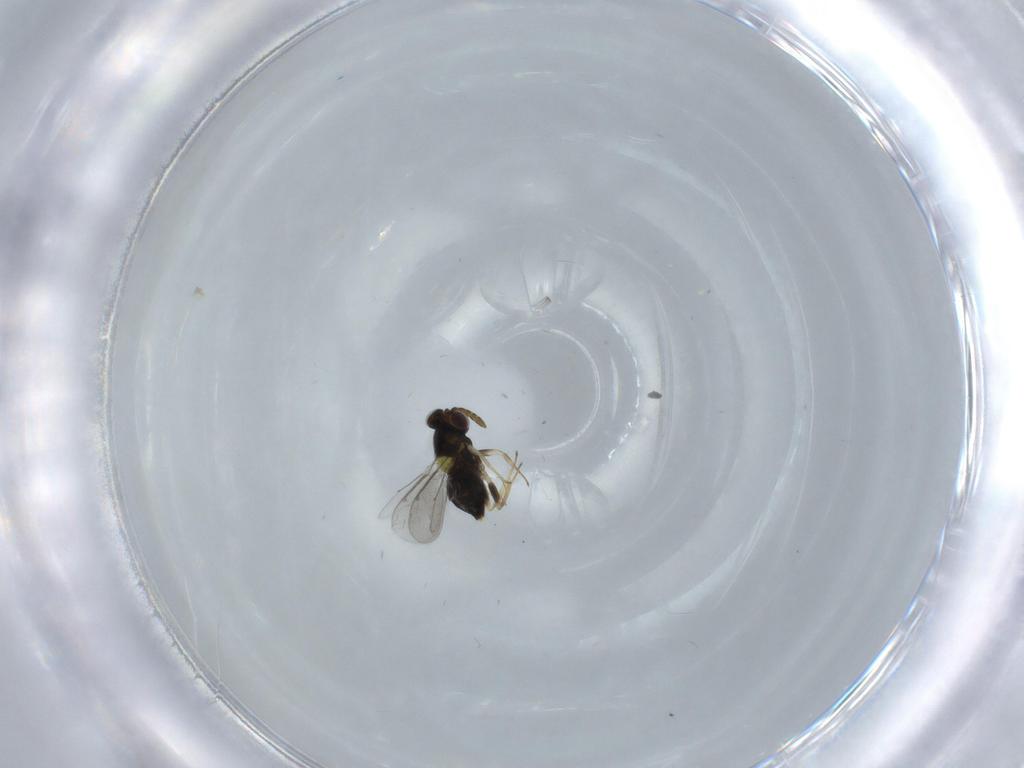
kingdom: Animalia
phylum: Arthropoda
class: Insecta
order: Hymenoptera
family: Aphelinidae
